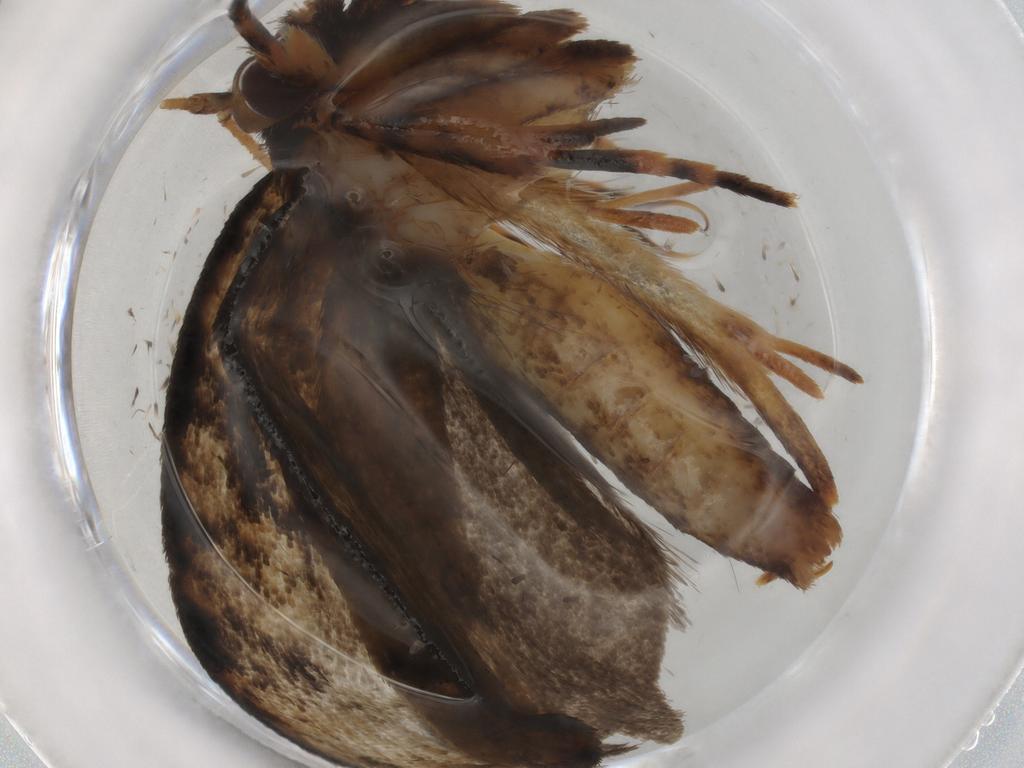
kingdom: Animalia
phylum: Arthropoda
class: Insecta
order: Lepidoptera
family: Tineidae
